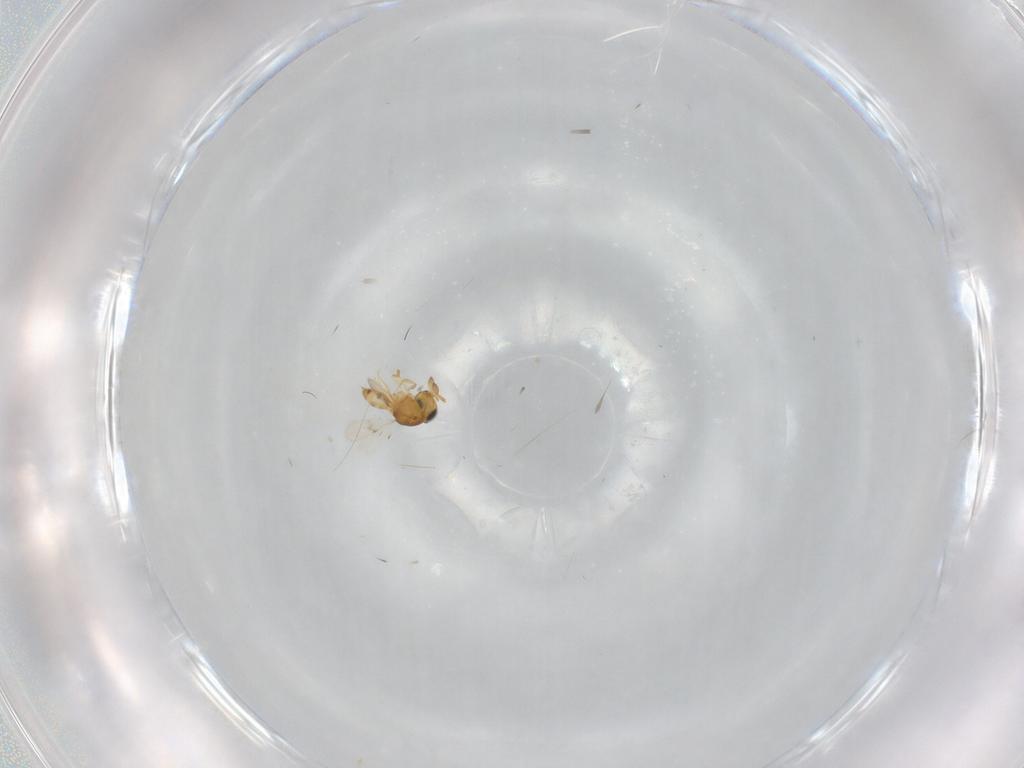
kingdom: Animalia
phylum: Arthropoda
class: Insecta
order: Hymenoptera
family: Scelionidae
